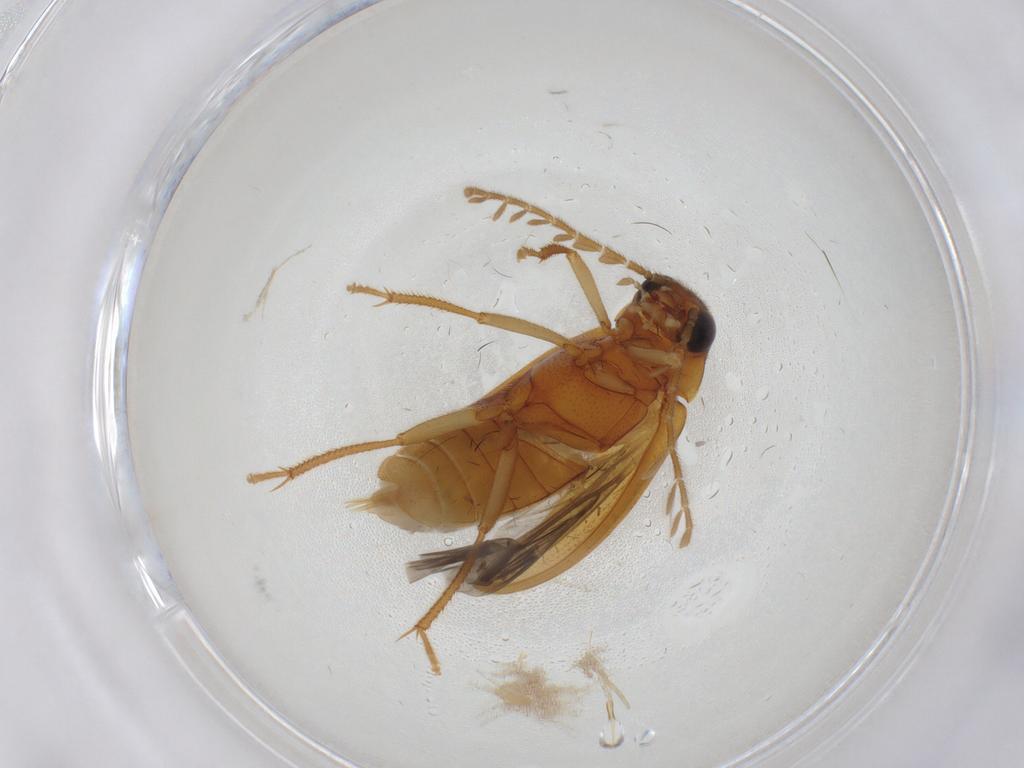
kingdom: Animalia
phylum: Arthropoda
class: Insecta
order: Coleoptera
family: Ptilodactylidae
